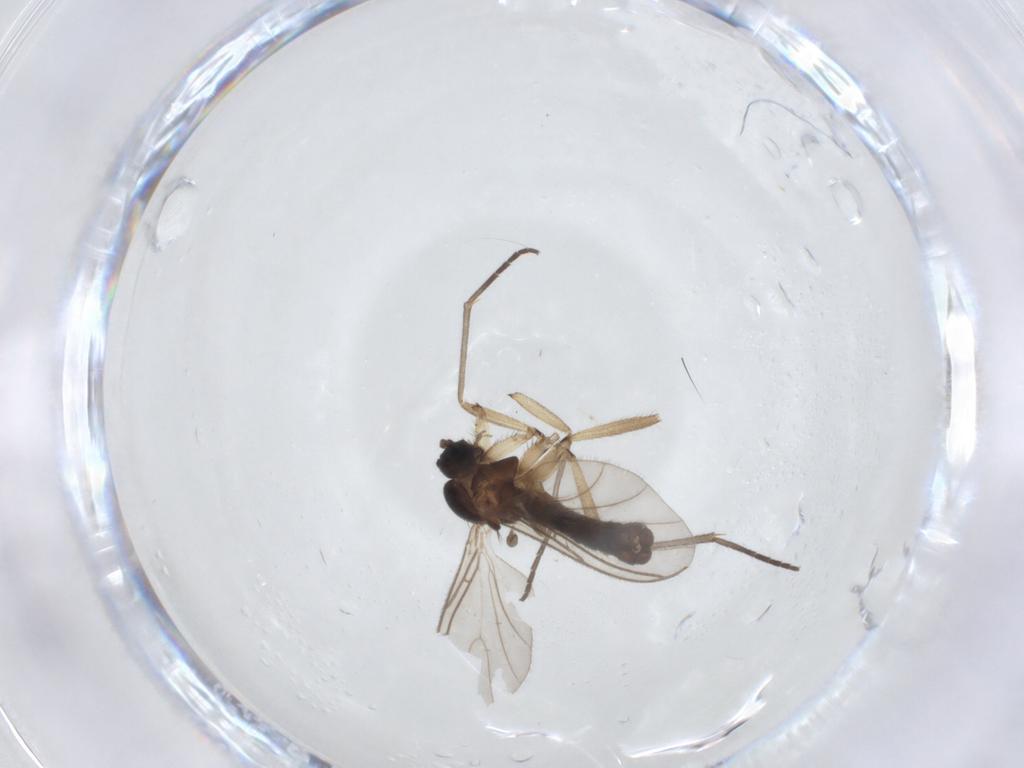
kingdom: Animalia
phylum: Arthropoda
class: Insecta
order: Diptera
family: Sciaridae
